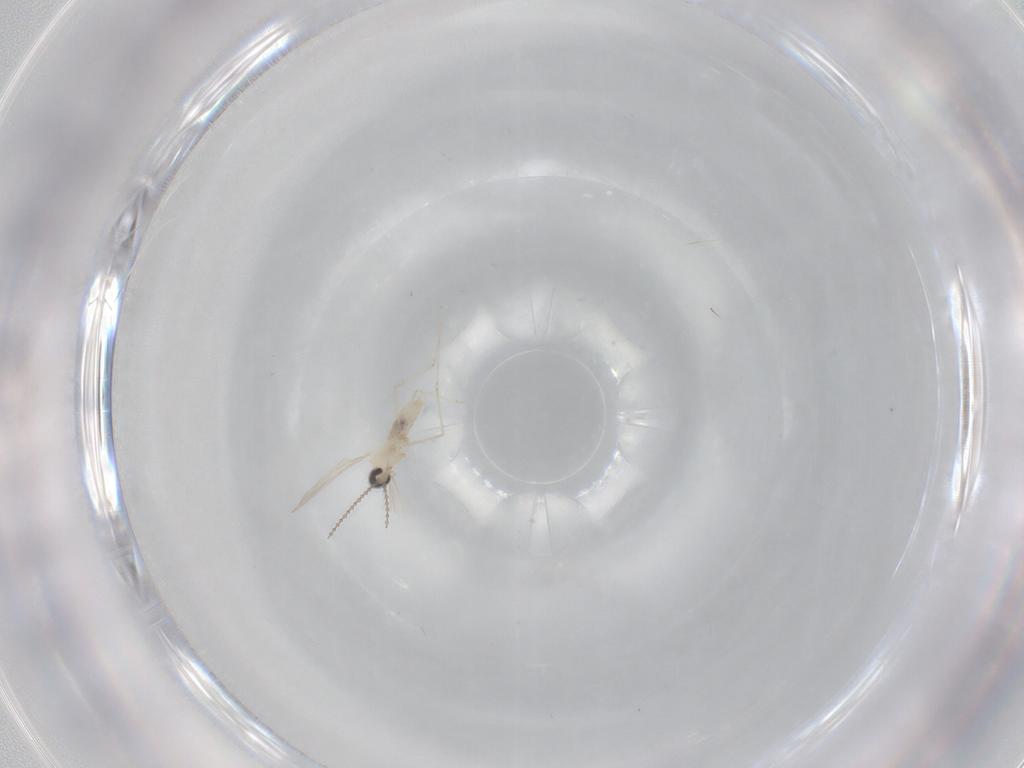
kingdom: Animalia
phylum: Arthropoda
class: Insecta
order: Diptera
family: Cecidomyiidae
